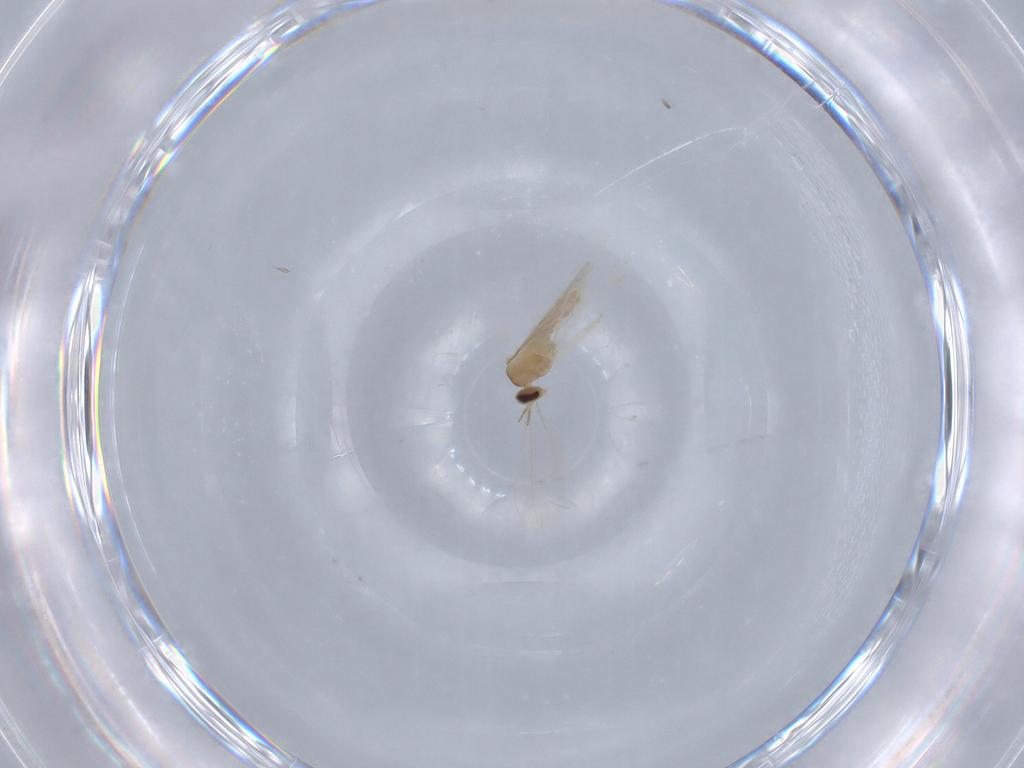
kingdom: Animalia
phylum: Arthropoda
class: Insecta
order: Diptera
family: Cecidomyiidae
